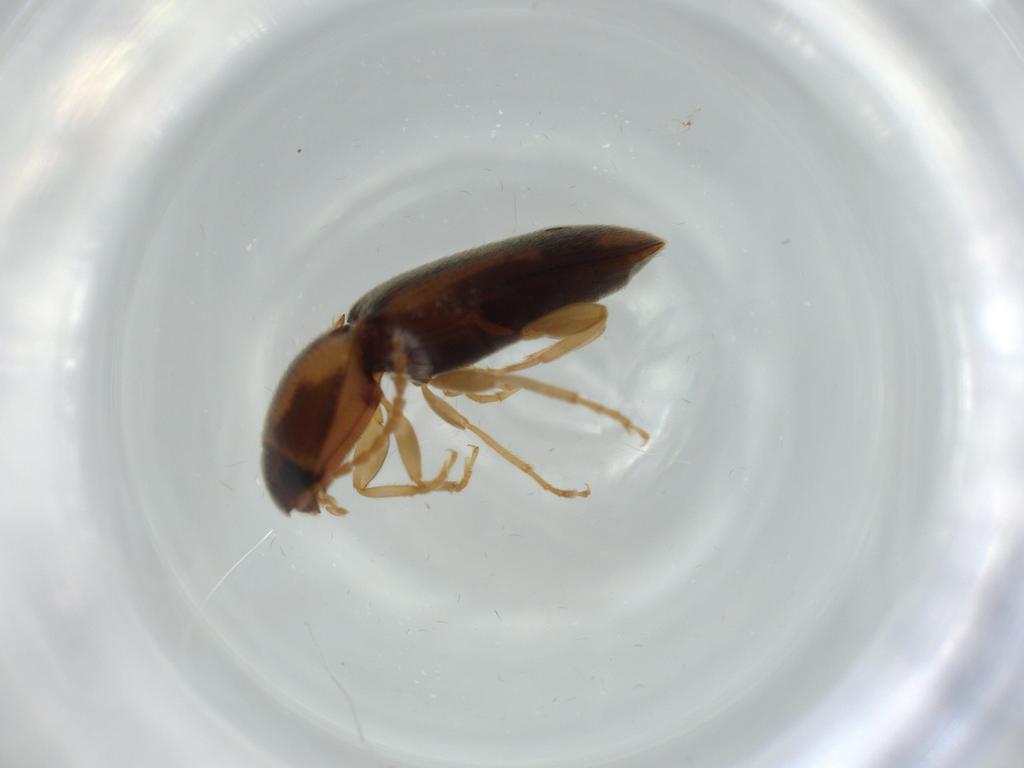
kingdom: Animalia
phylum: Arthropoda
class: Insecta
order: Coleoptera
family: Elateridae
